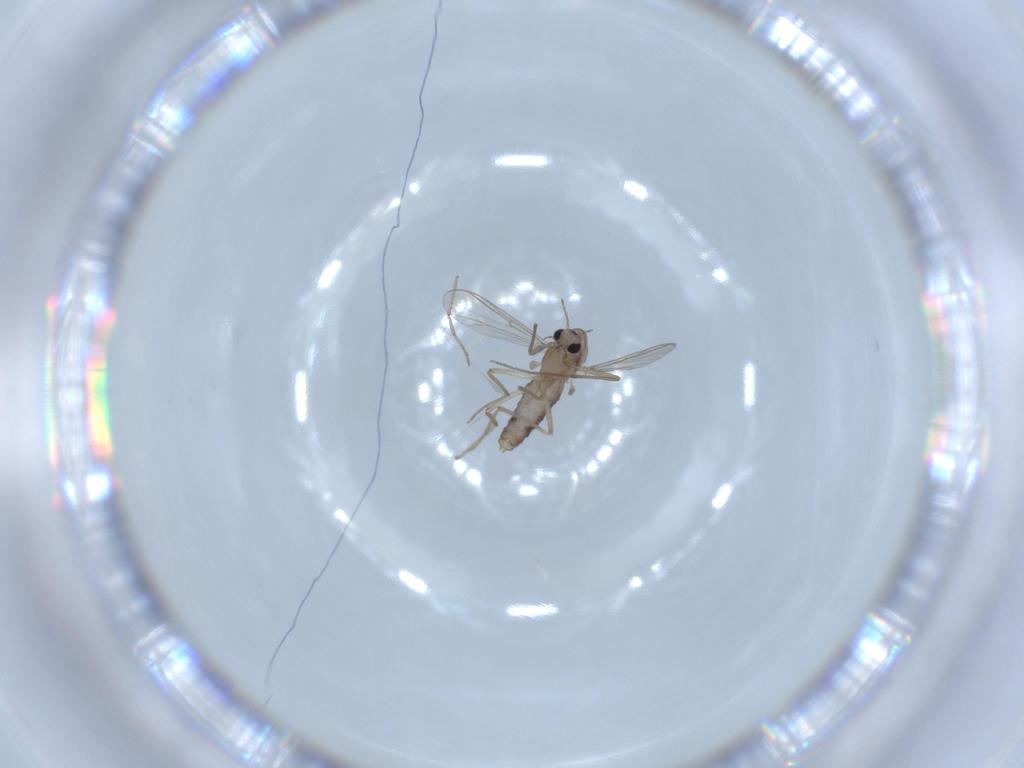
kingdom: Animalia
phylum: Arthropoda
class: Insecta
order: Diptera
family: Chironomidae
